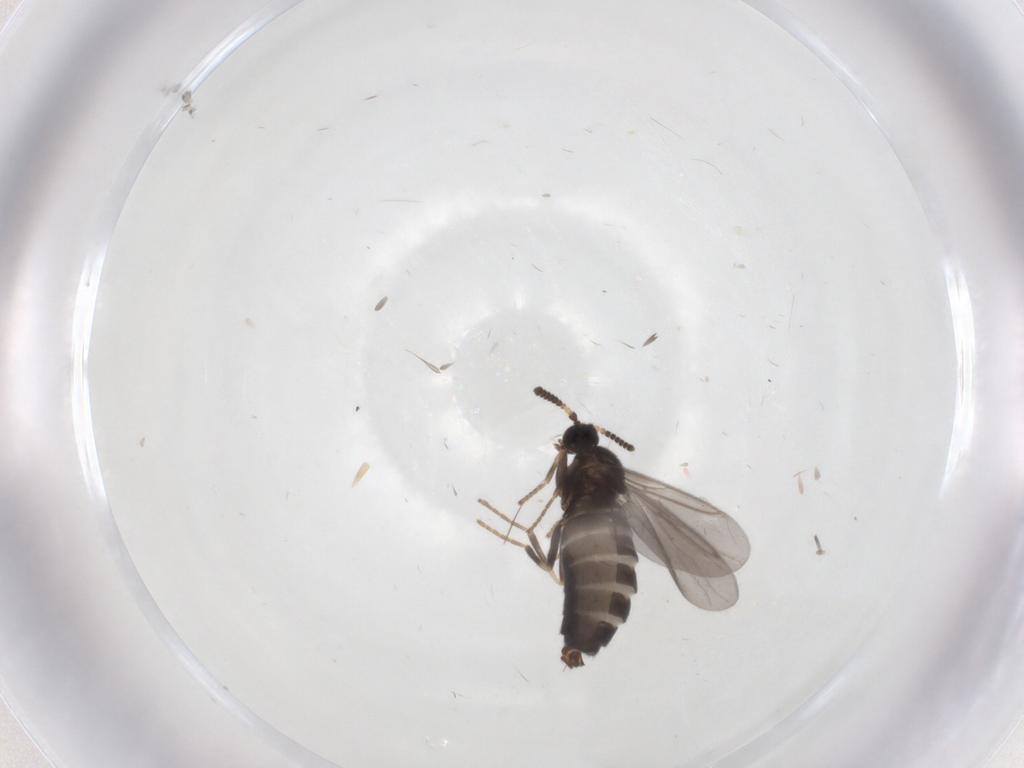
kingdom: Animalia
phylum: Arthropoda
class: Insecta
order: Diptera
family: Scatopsidae
